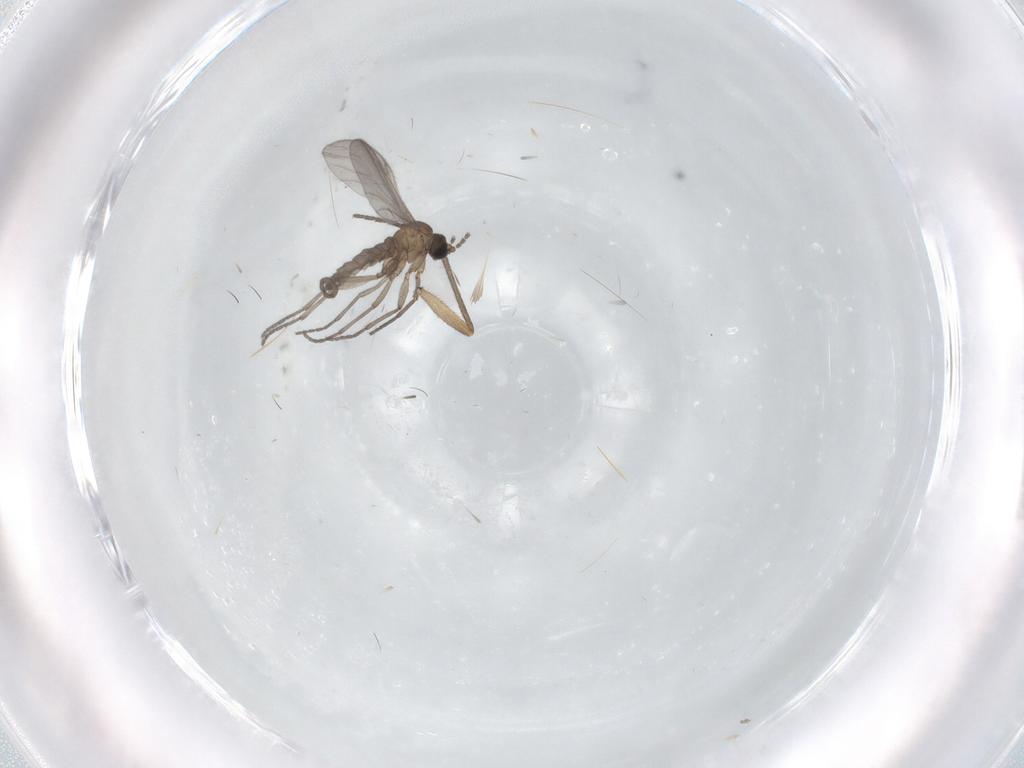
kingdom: Animalia
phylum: Arthropoda
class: Insecta
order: Diptera
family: Sciaridae
